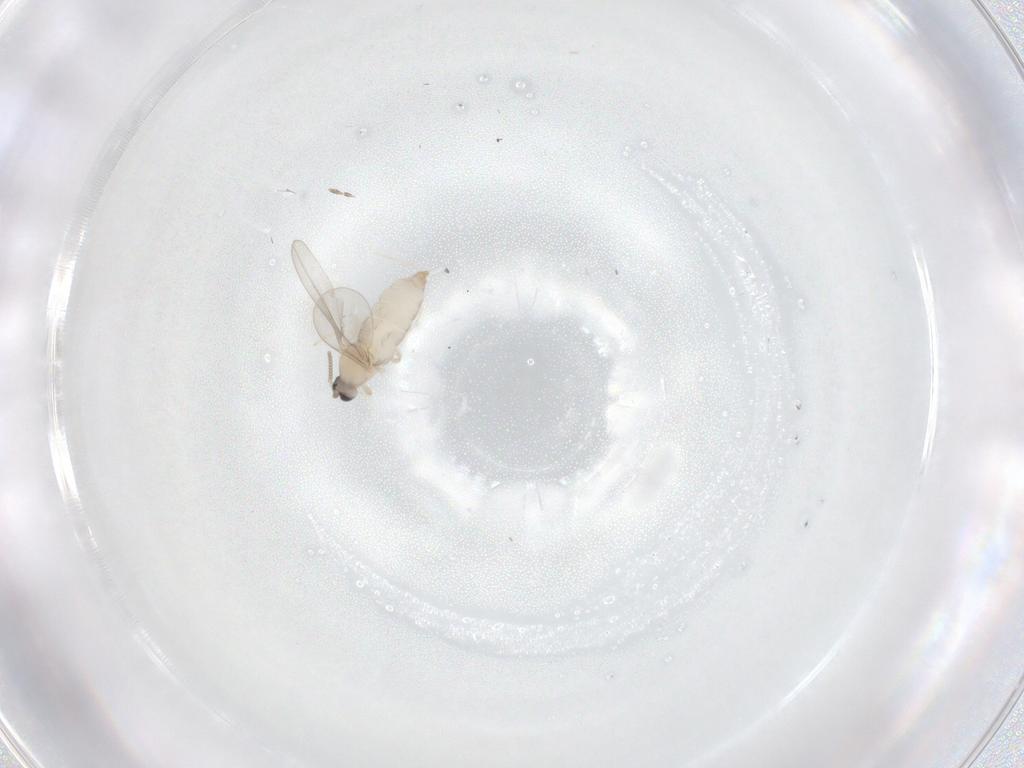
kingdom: Animalia
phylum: Arthropoda
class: Insecta
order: Diptera
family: Cecidomyiidae
